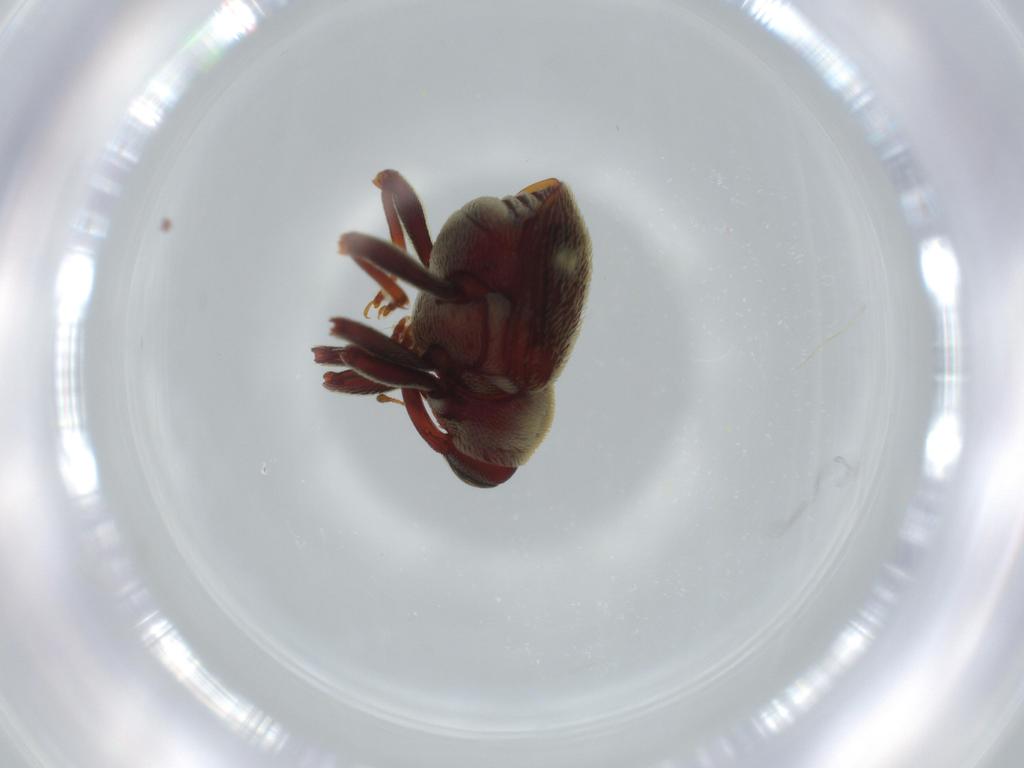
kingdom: Animalia
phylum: Arthropoda
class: Insecta
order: Coleoptera
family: Curculionidae
